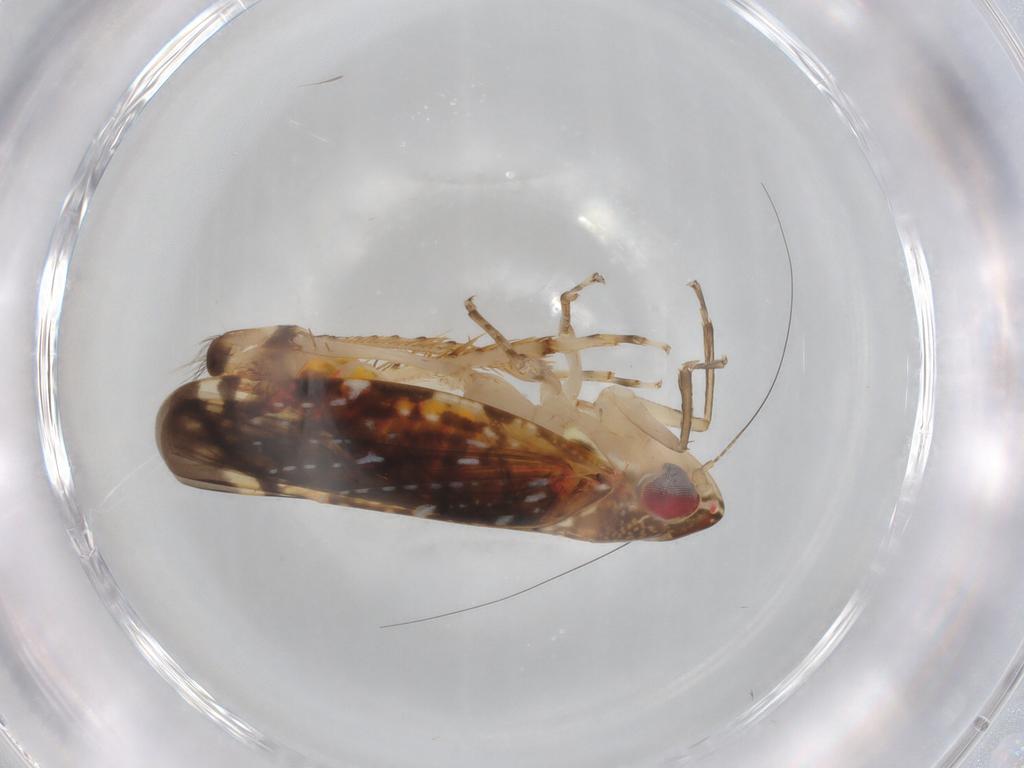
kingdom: Animalia
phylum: Arthropoda
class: Insecta
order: Hemiptera
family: Cicadellidae
